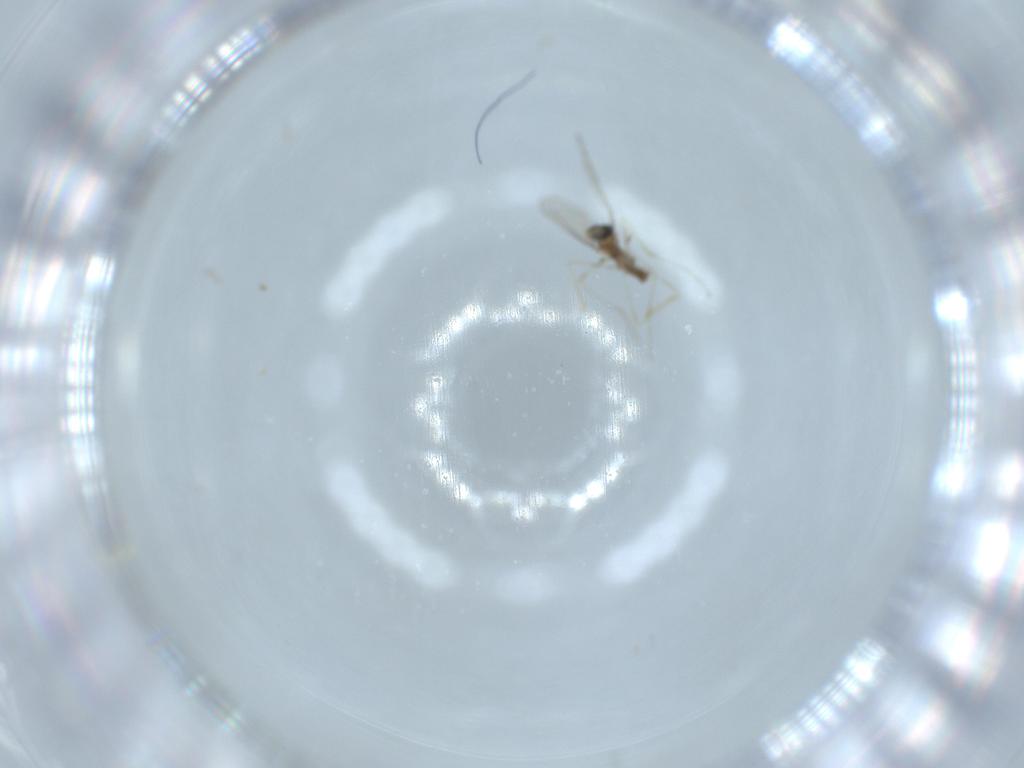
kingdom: Animalia
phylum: Arthropoda
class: Insecta
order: Diptera
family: Cecidomyiidae
